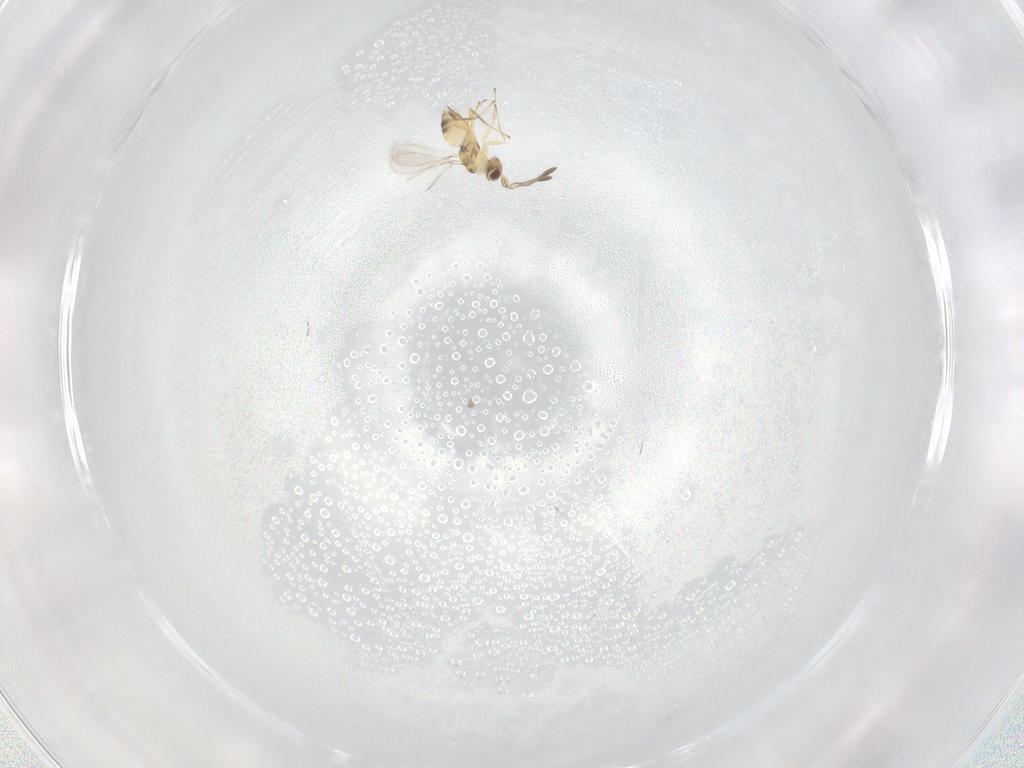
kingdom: Animalia
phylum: Arthropoda
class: Insecta
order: Hymenoptera
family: Mymaridae
